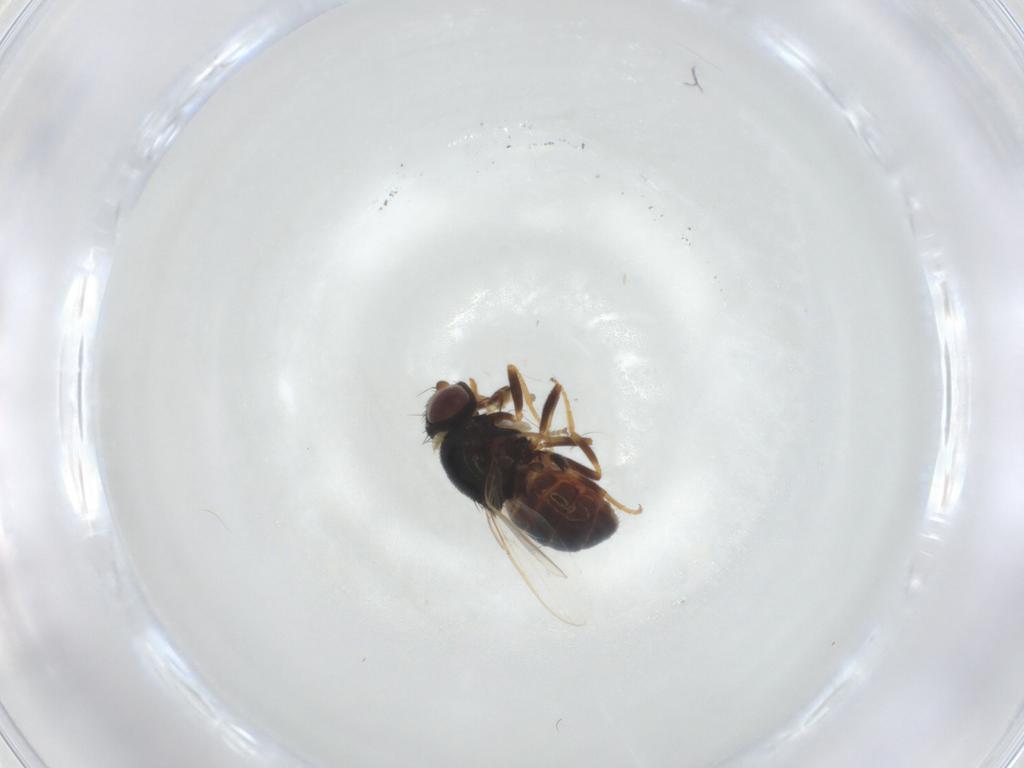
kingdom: Animalia
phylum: Arthropoda
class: Insecta
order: Diptera
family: Chloropidae
